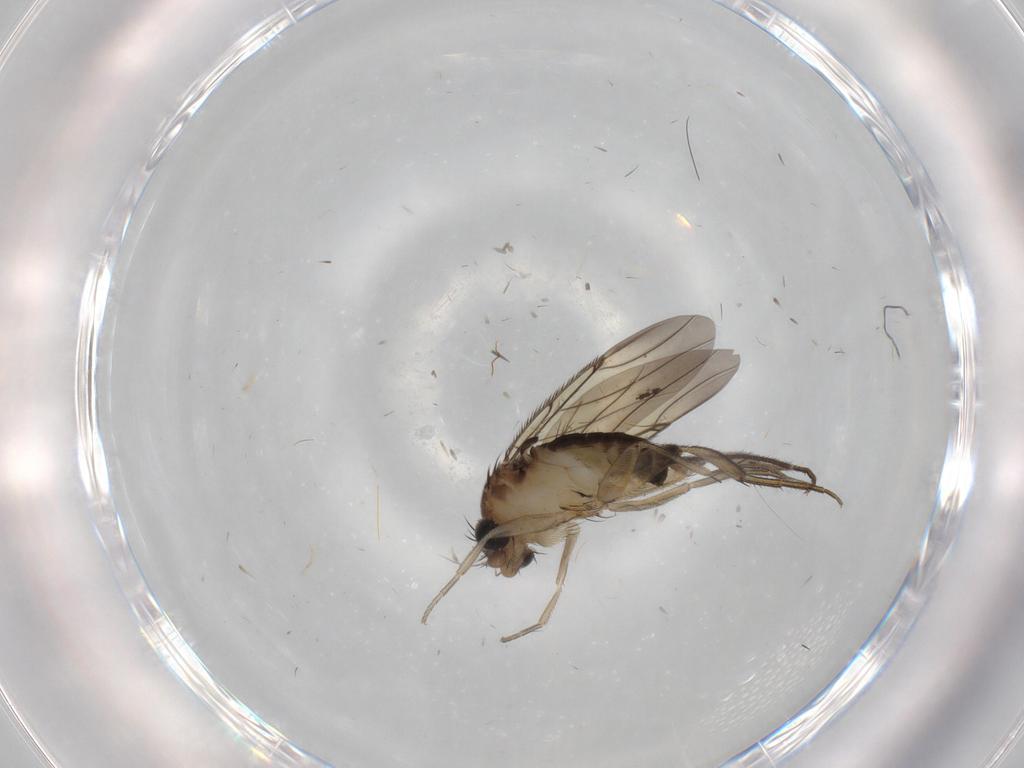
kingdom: Animalia
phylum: Arthropoda
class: Insecta
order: Diptera
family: Phoridae
